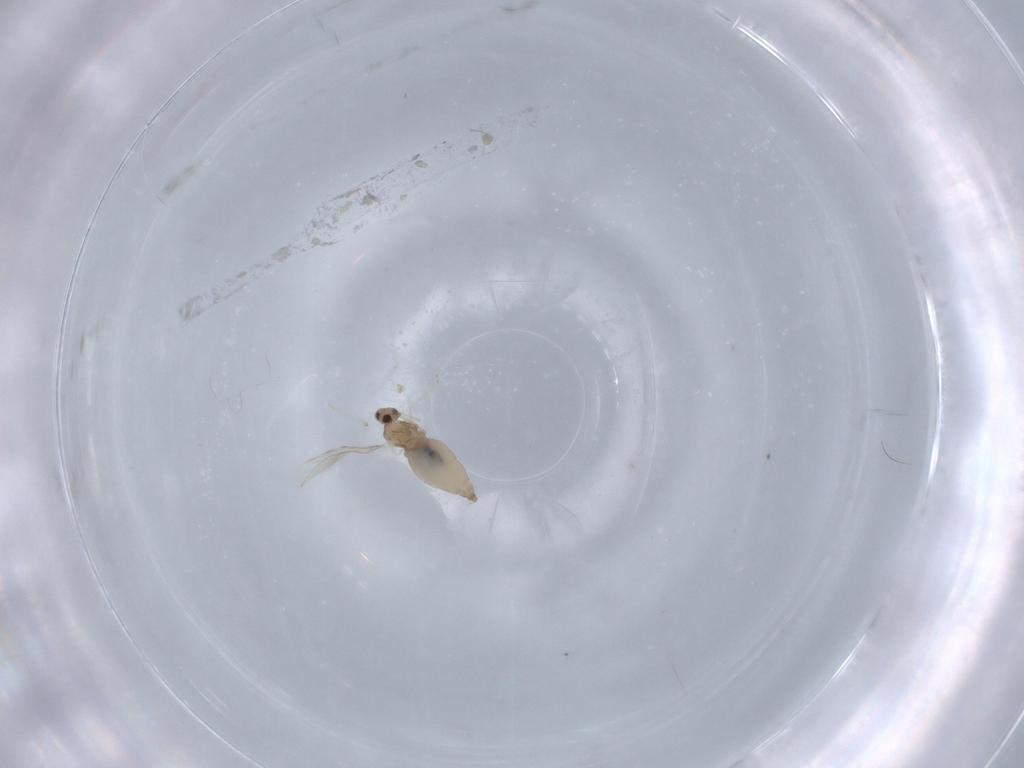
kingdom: Animalia
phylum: Arthropoda
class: Insecta
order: Diptera
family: Cecidomyiidae
